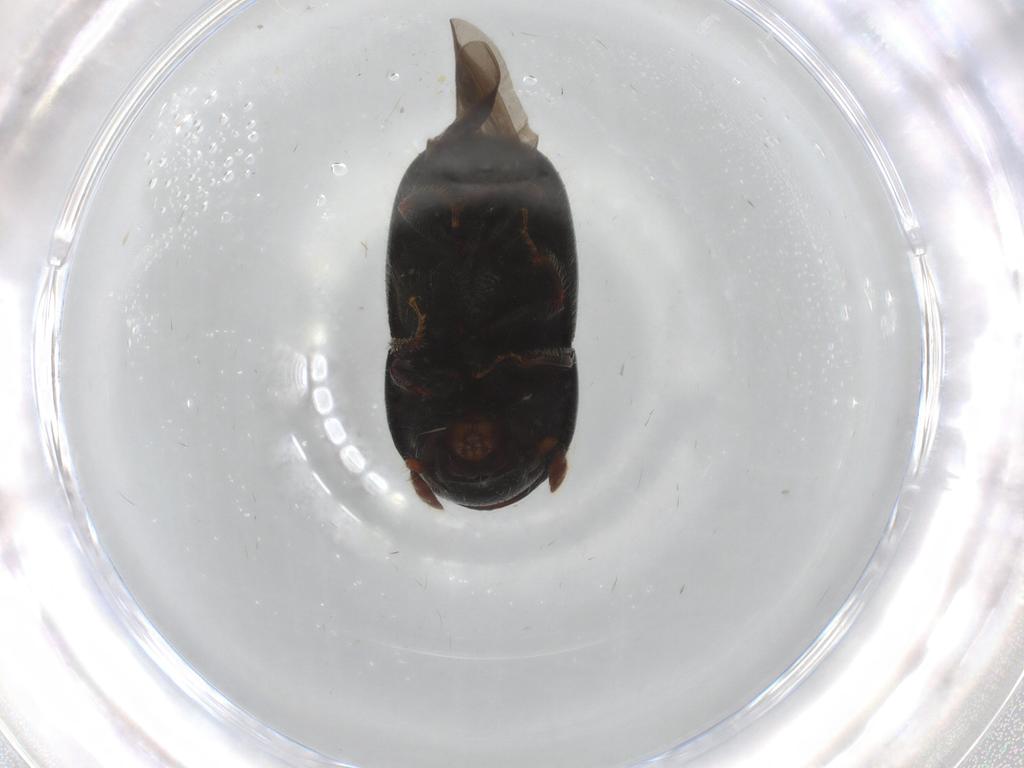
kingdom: Animalia
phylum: Arthropoda
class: Insecta
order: Coleoptera
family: Curculionidae
